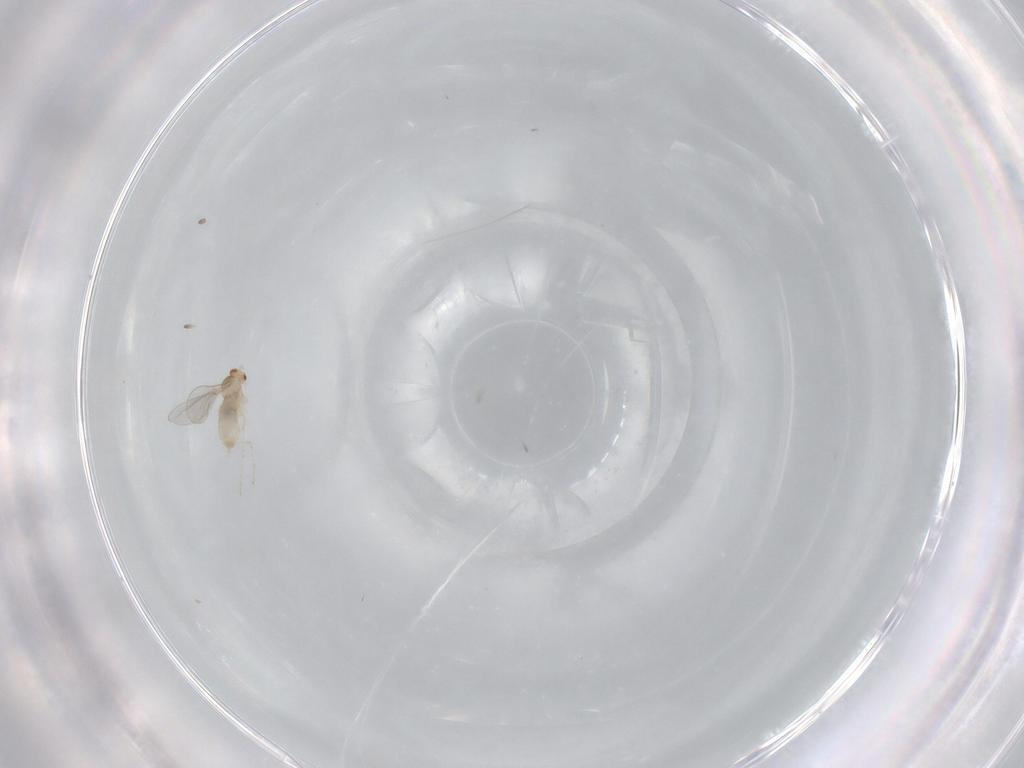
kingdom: Animalia
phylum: Arthropoda
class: Insecta
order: Diptera
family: Cecidomyiidae
